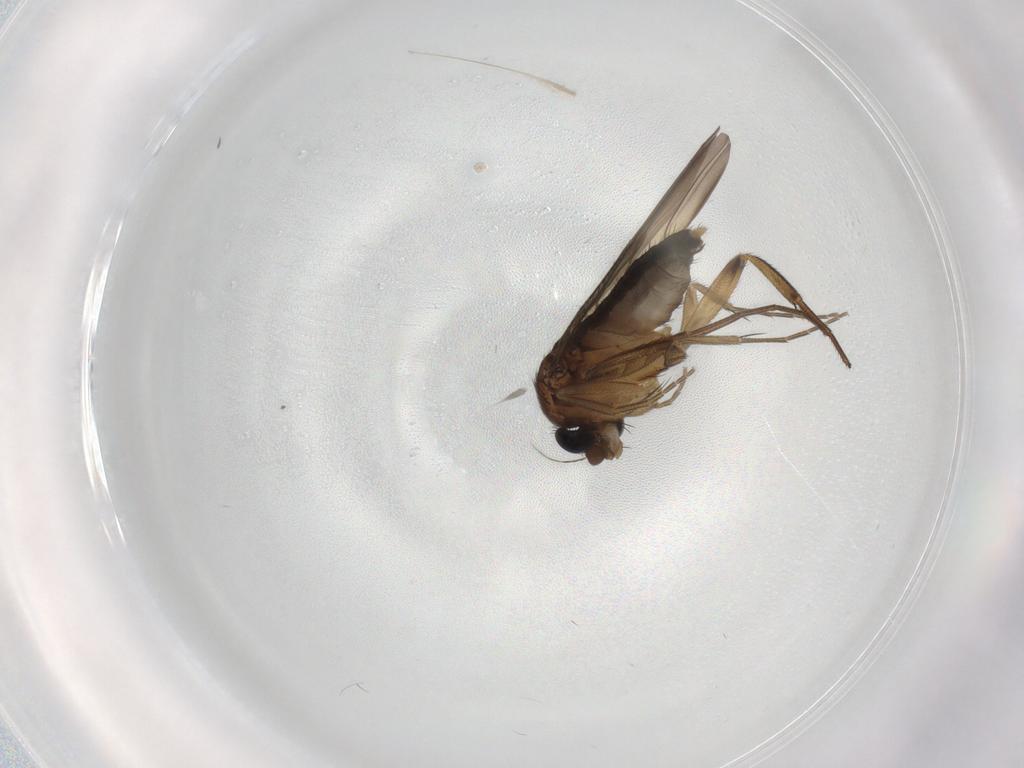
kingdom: Animalia
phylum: Arthropoda
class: Insecta
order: Diptera
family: Phoridae
